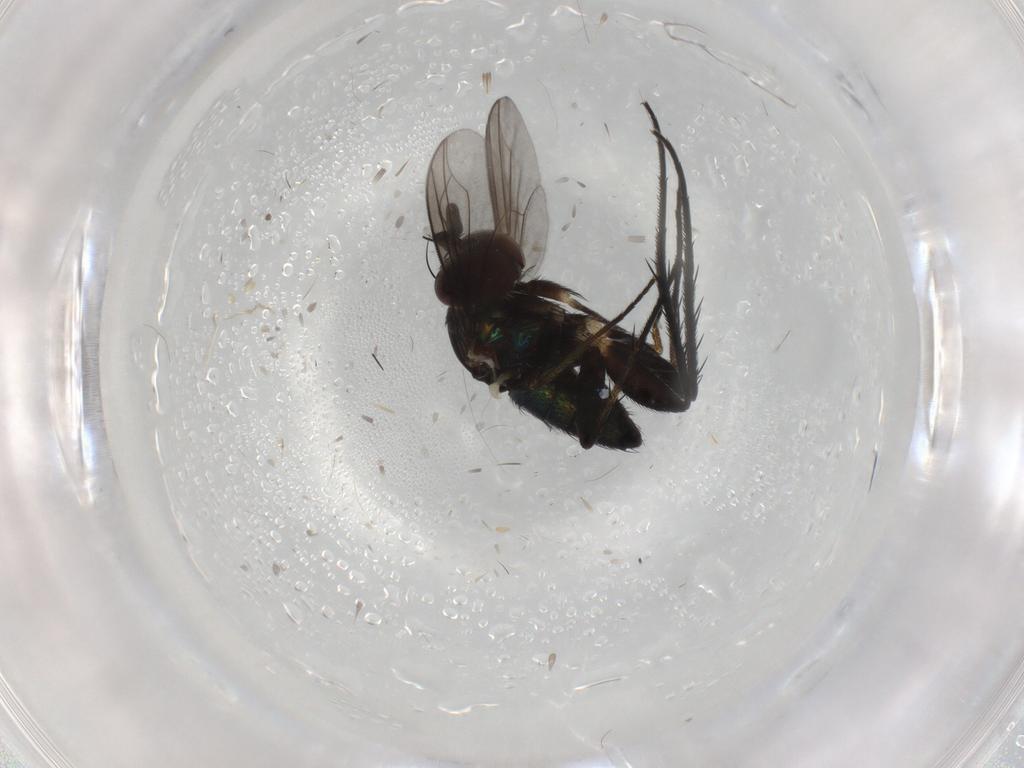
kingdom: Animalia
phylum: Arthropoda
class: Insecta
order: Diptera
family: Dolichopodidae
